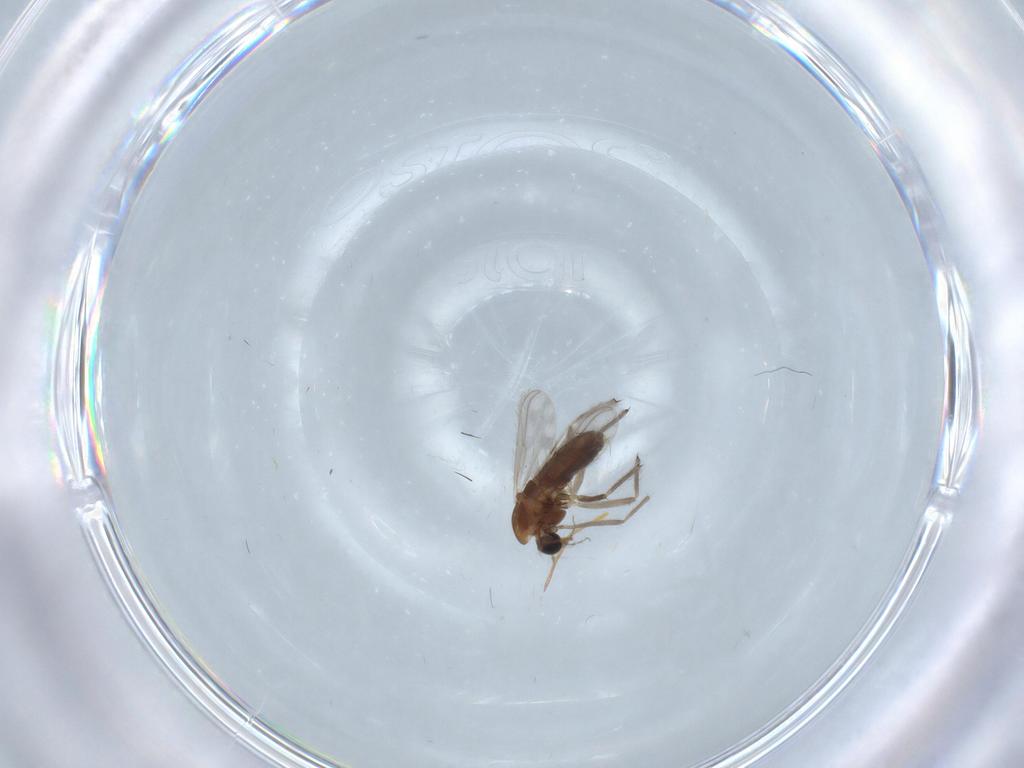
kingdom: Animalia
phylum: Arthropoda
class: Insecta
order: Diptera
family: Chironomidae
